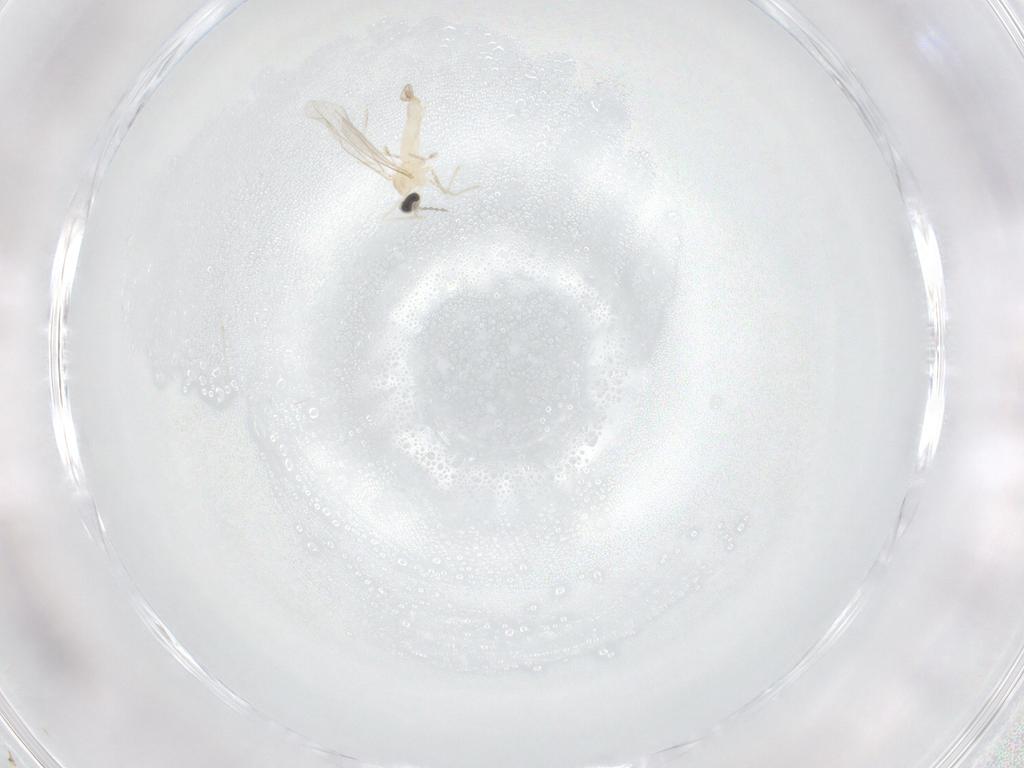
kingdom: Animalia
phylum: Arthropoda
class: Insecta
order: Diptera
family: Cecidomyiidae
